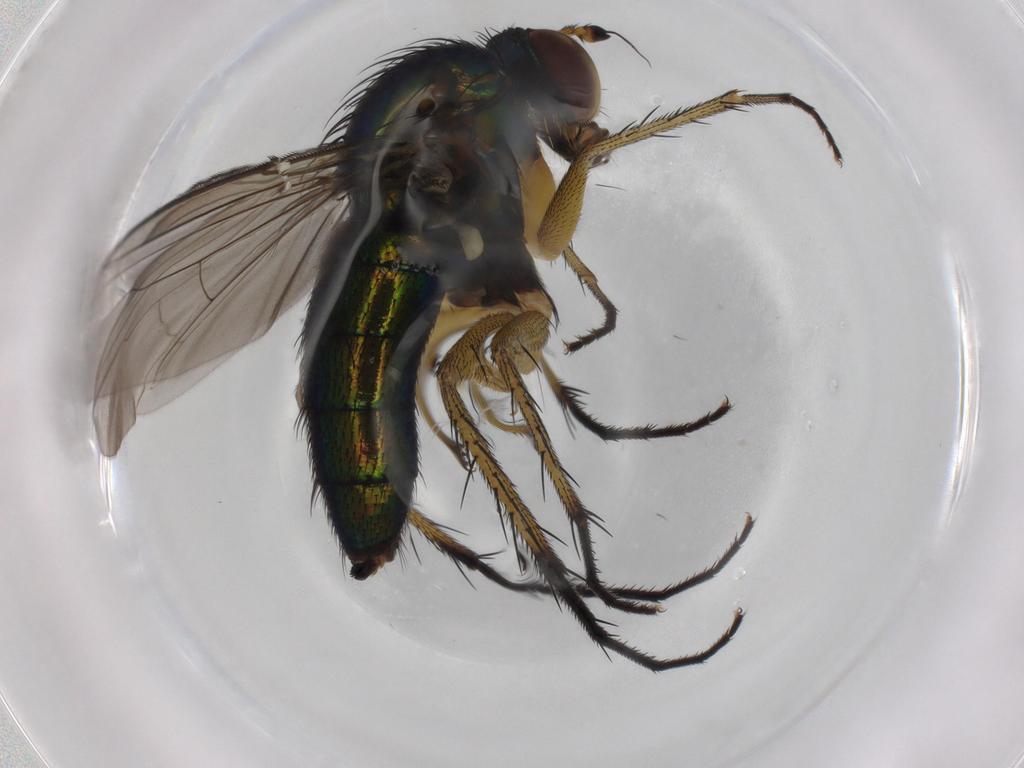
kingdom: Animalia
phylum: Arthropoda
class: Insecta
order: Diptera
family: Dolichopodidae
